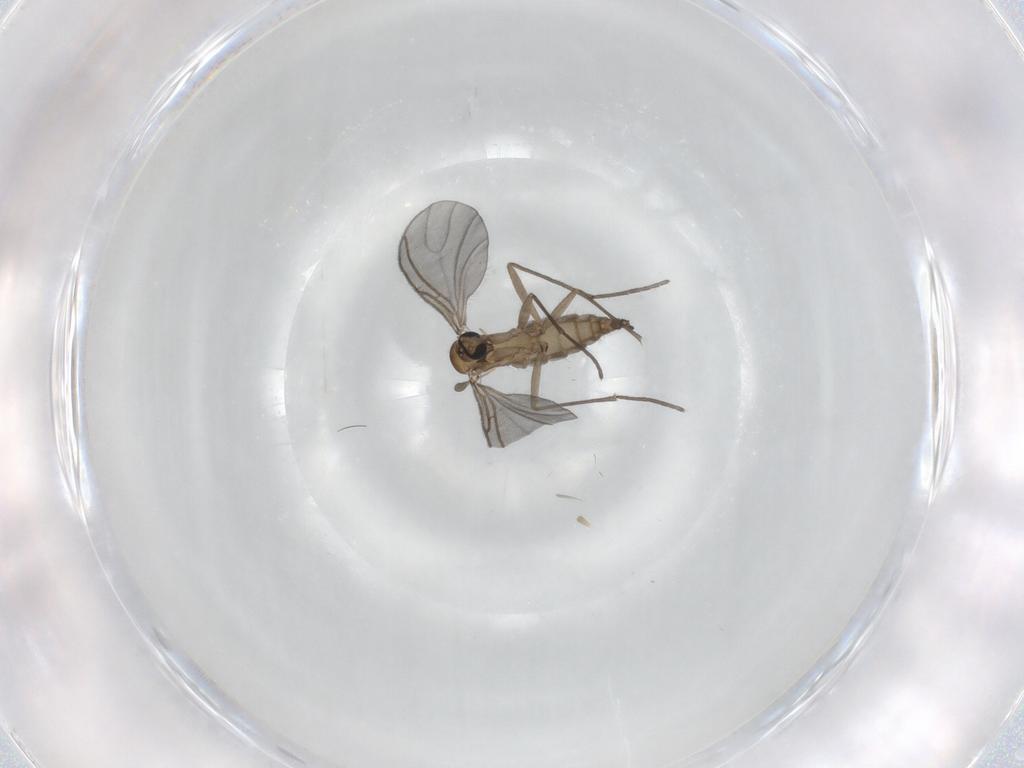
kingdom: Animalia
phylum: Arthropoda
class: Insecta
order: Diptera
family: Sciaridae
